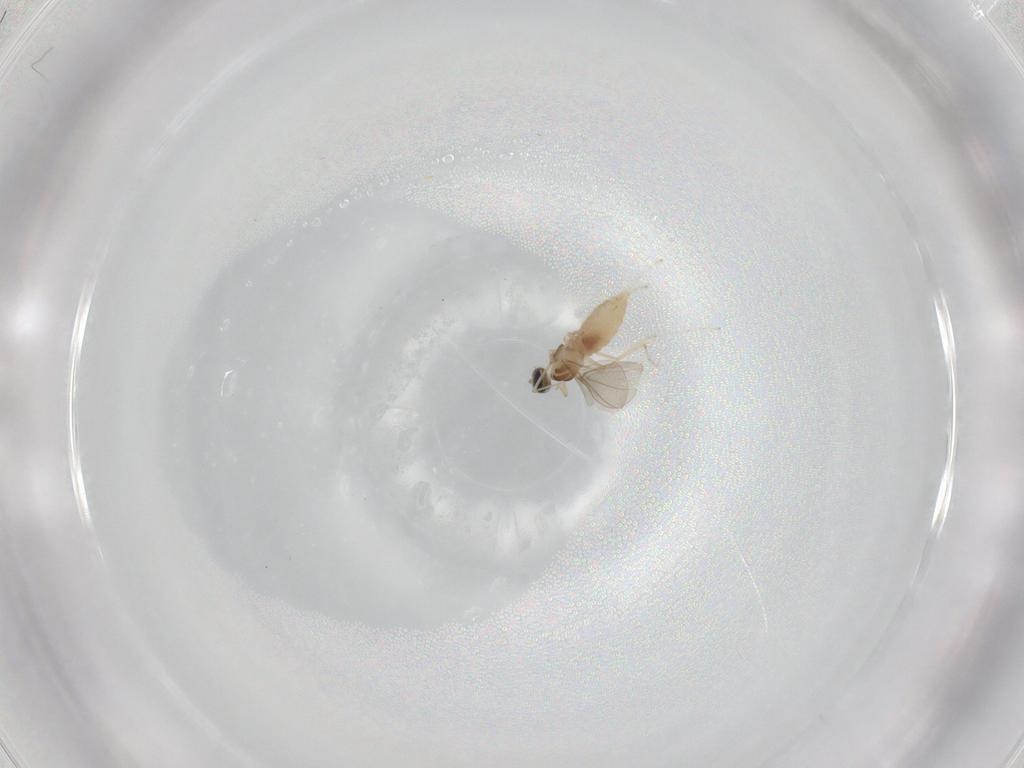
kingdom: Animalia
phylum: Arthropoda
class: Insecta
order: Diptera
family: Cecidomyiidae
